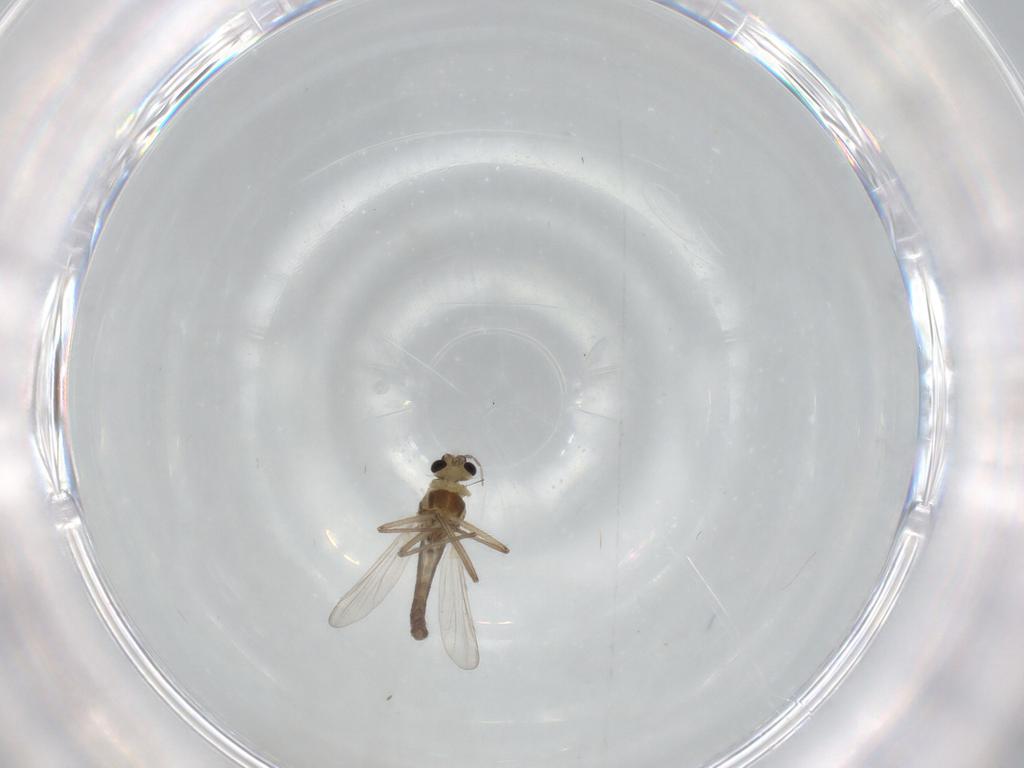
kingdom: Animalia
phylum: Arthropoda
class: Insecta
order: Diptera
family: Chironomidae
